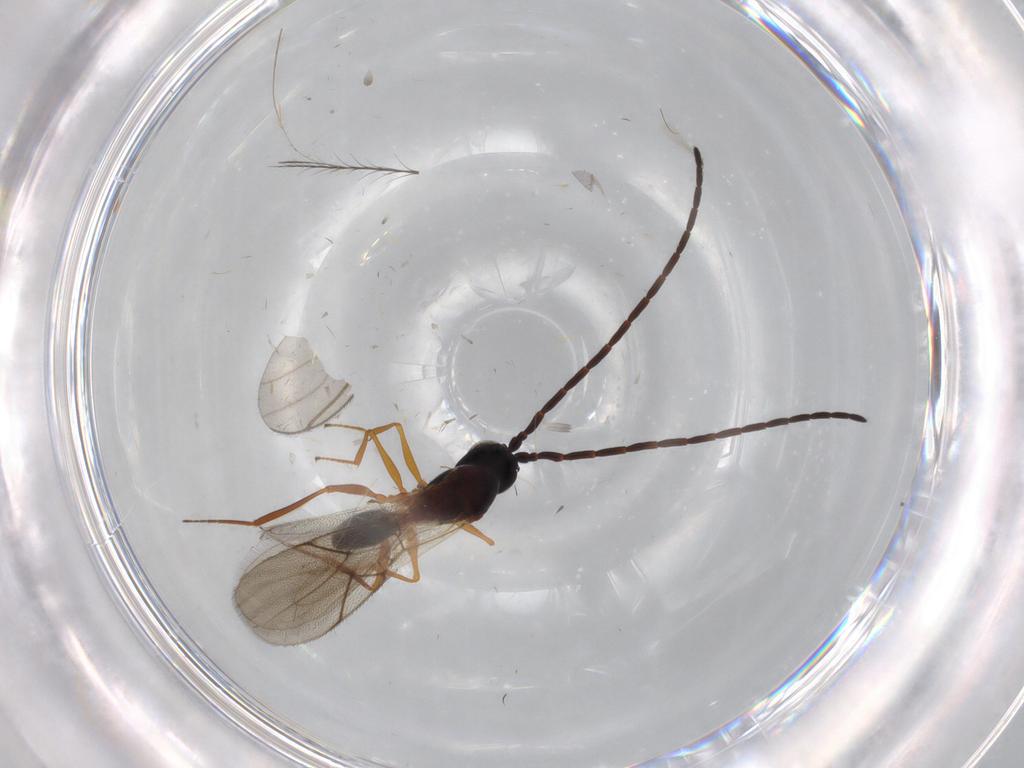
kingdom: Animalia
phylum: Arthropoda
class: Insecta
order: Hymenoptera
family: Figitidae
